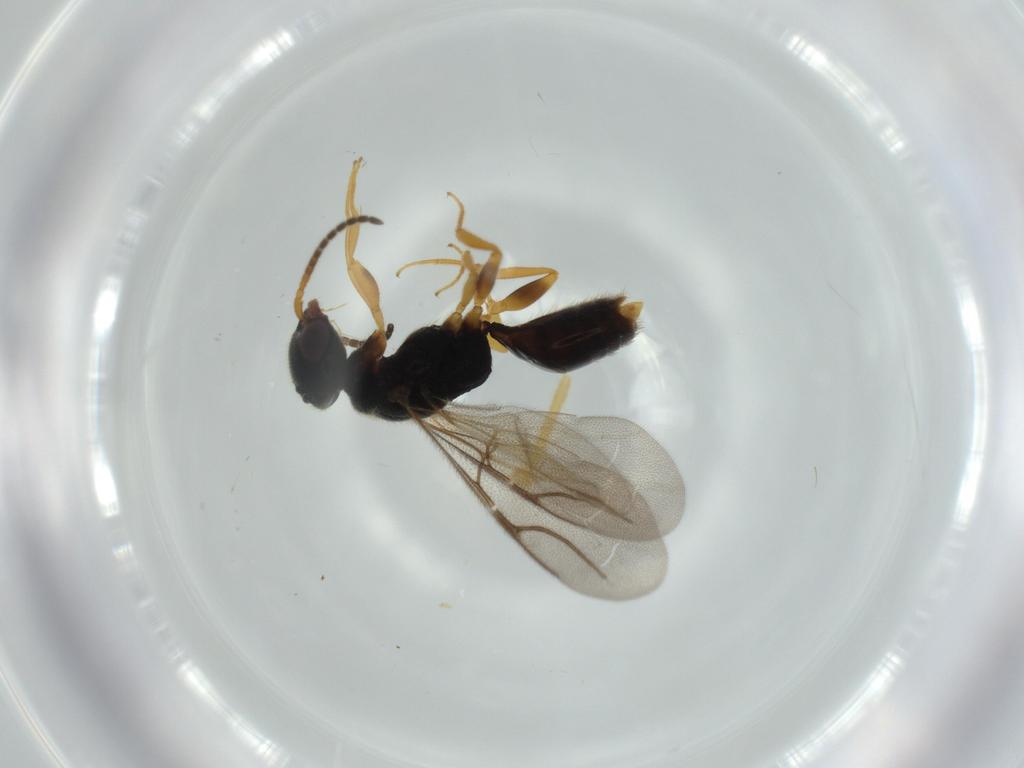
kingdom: Animalia
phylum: Arthropoda
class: Insecta
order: Hymenoptera
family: Bethylidae
